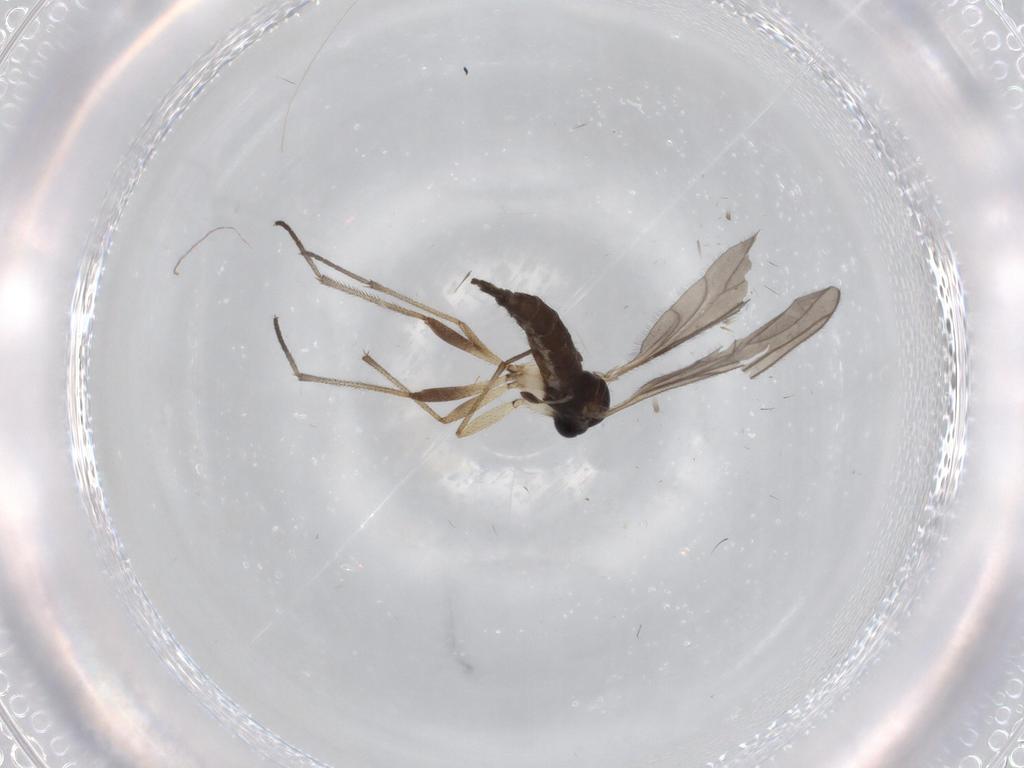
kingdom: Animalia
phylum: Arthropoda
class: Insecta
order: Diptera
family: Sciaridae
